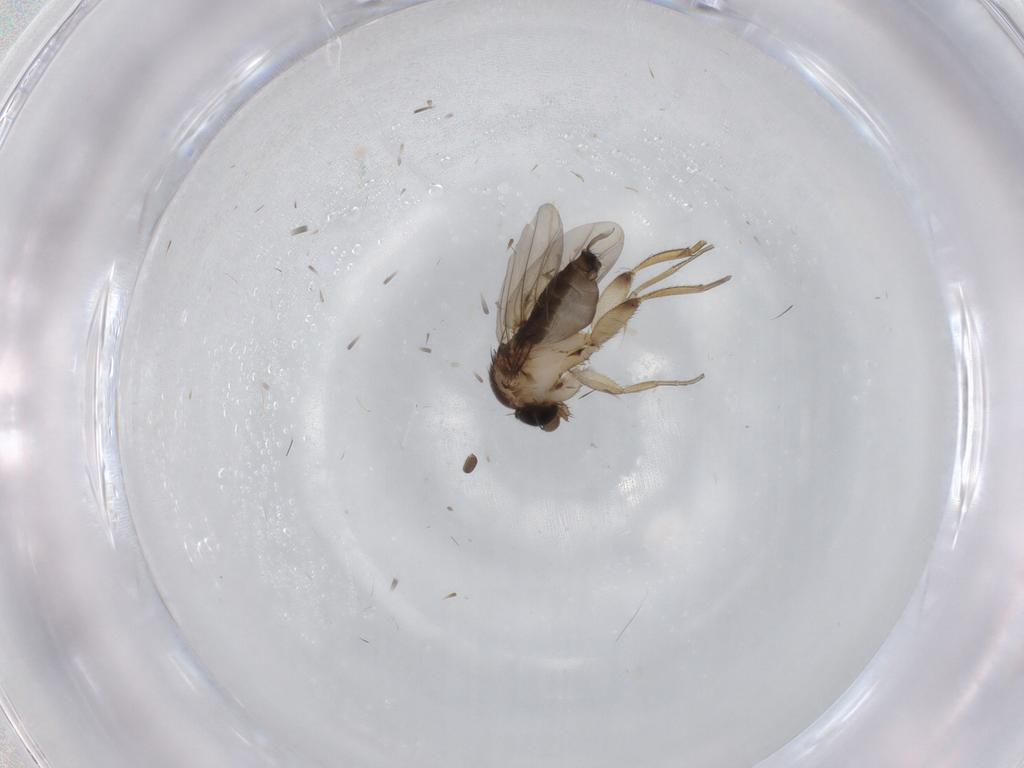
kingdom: Animalia
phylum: Arthropoda
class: Insecta
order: Diptera
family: Phoridae
